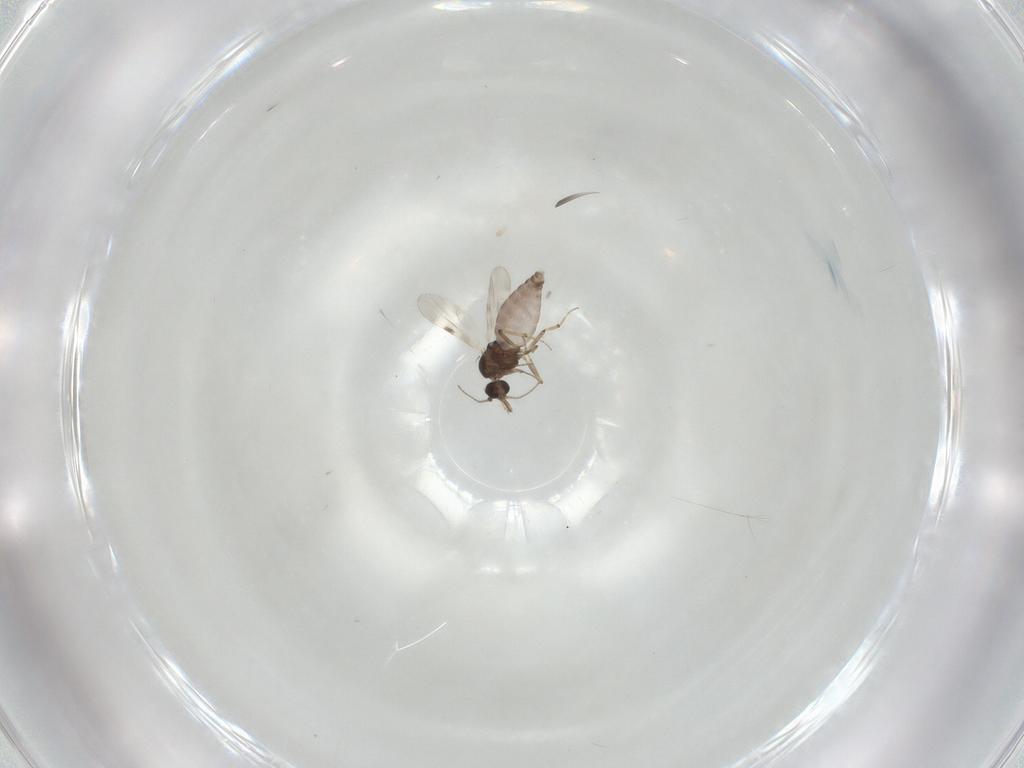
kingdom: Animalia
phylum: Arthropoda
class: Insecta
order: Diptera
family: Ceratopogonidae
